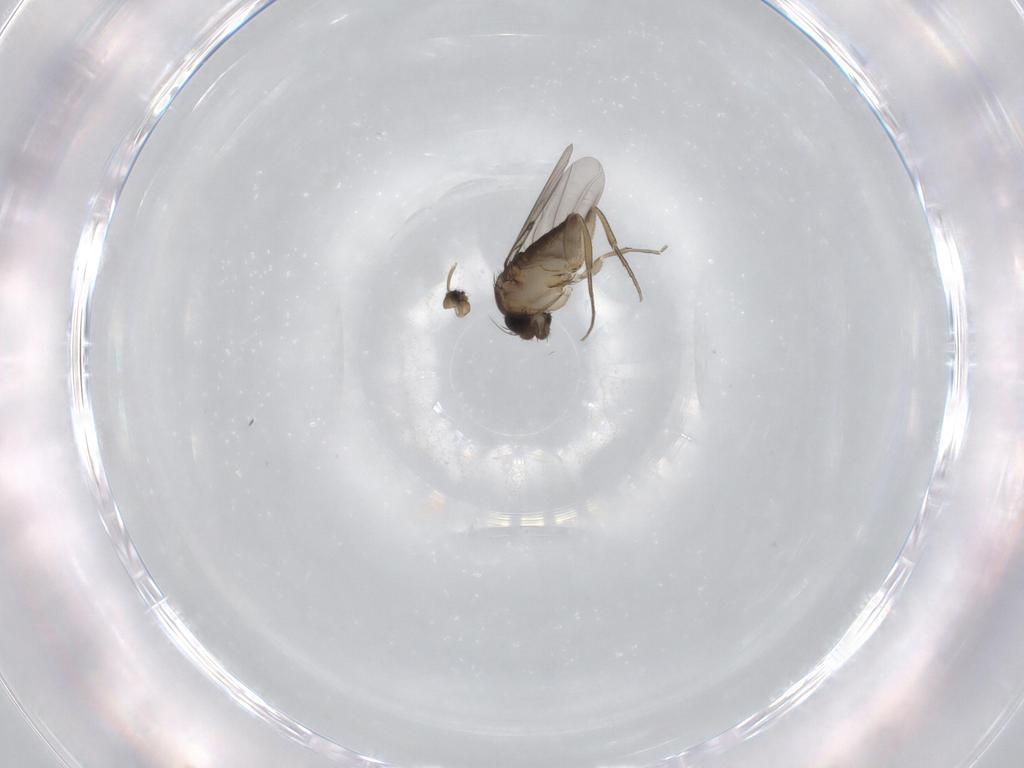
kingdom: Animalia
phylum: Arthropoda
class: Insecta
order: Diptera
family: Phoridae
